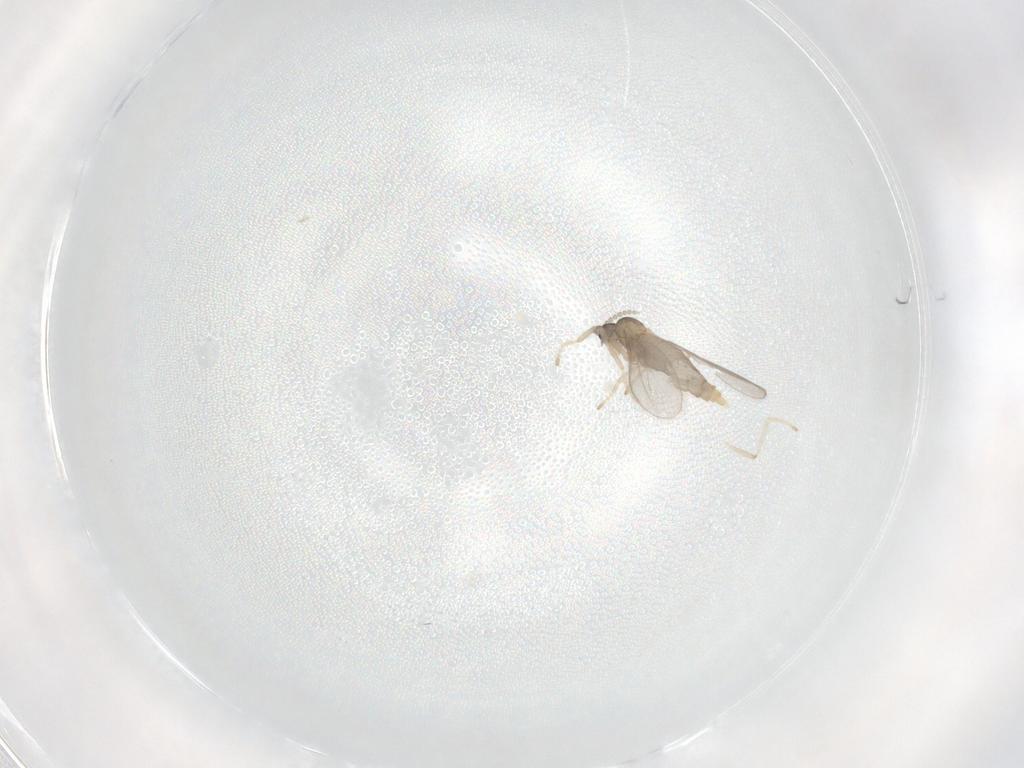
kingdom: Animalia
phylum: Arthropoda
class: Insecta
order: Diptera
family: Cecidomyiidae
